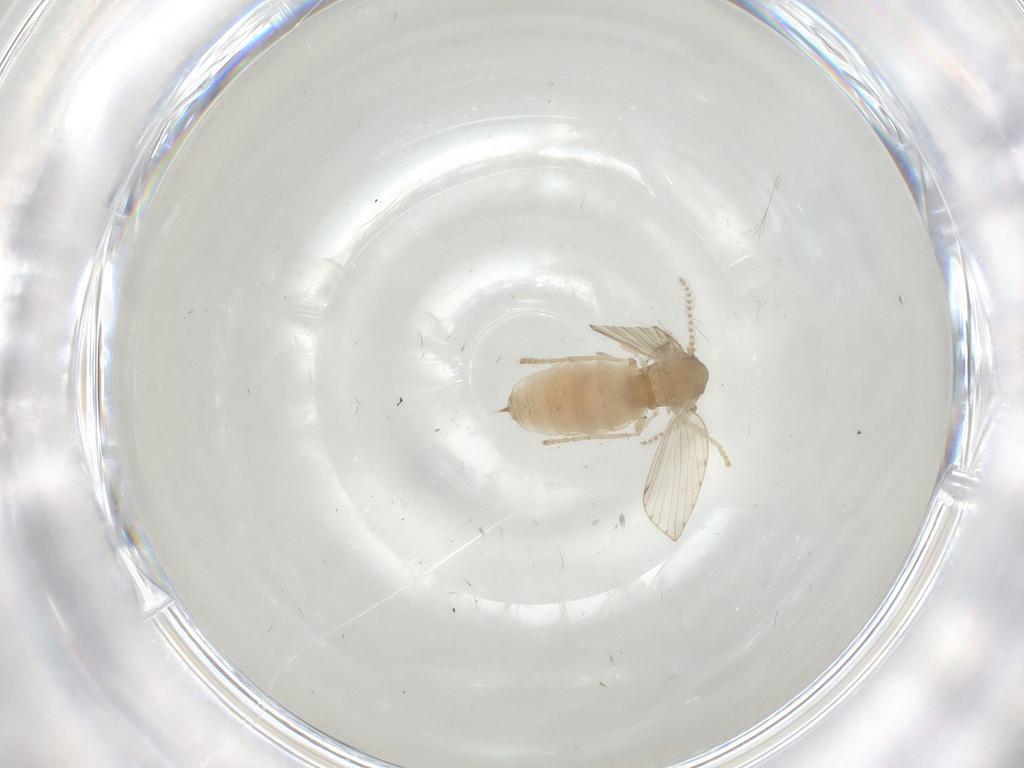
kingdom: Animalia
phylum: Arthropoda
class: Insecta
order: Diptera
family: Psychodidae
